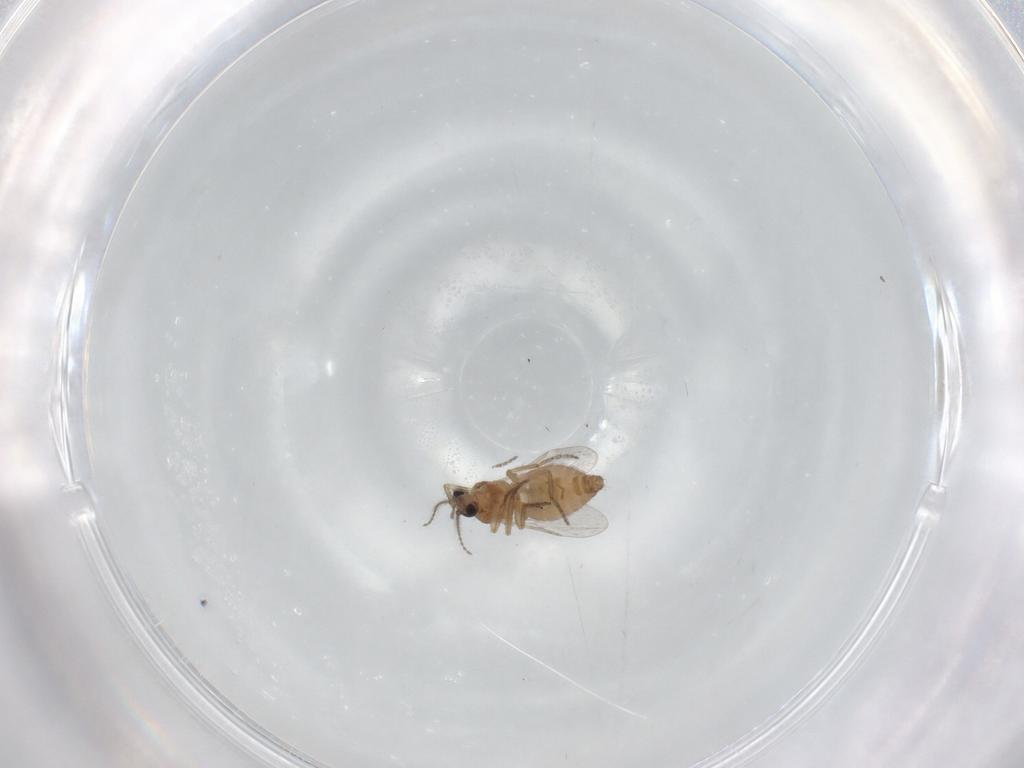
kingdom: Animalia
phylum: Arthropoda
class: Insecta
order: Diptera
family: Ceratopogonidae
